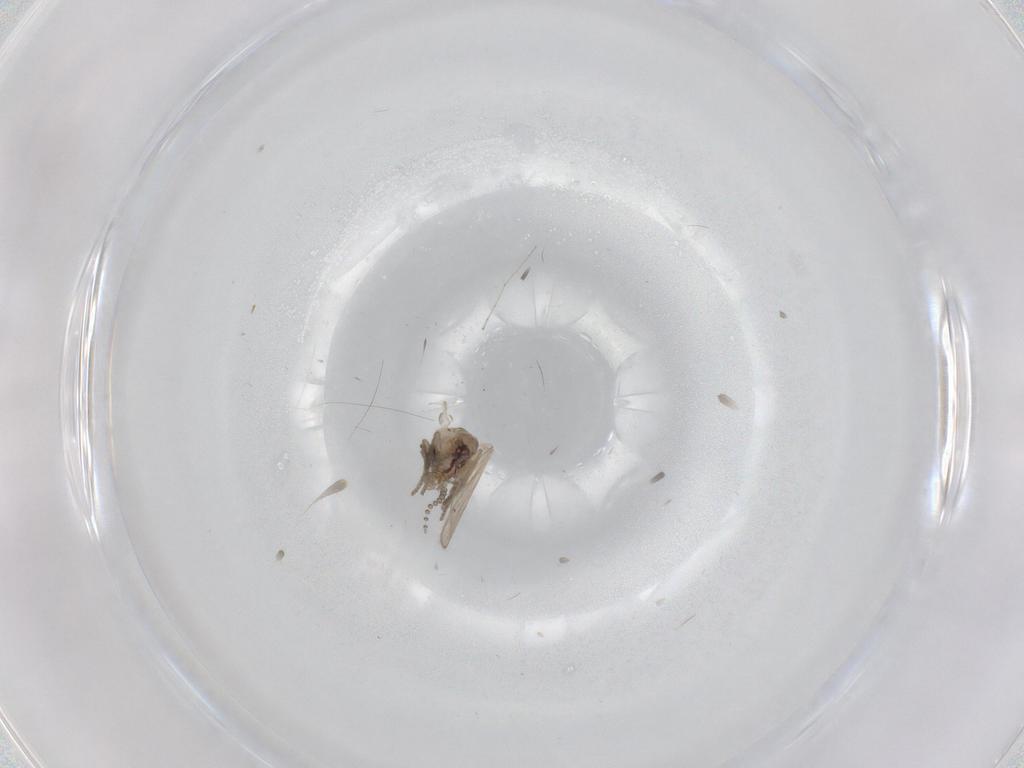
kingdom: Animalia
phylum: Arthropoda
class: Insecta
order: Diptera
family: Psychodidae
